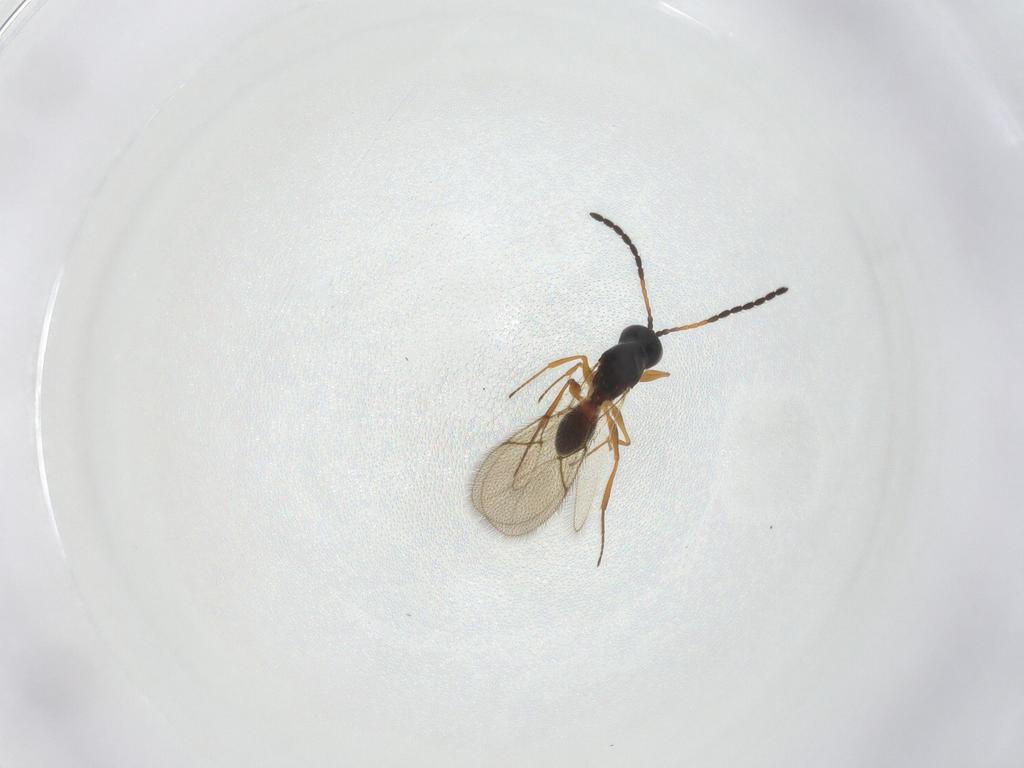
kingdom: Animalia
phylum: Arthropoda
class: Insecta
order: Hymenoptera
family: Figitidae
